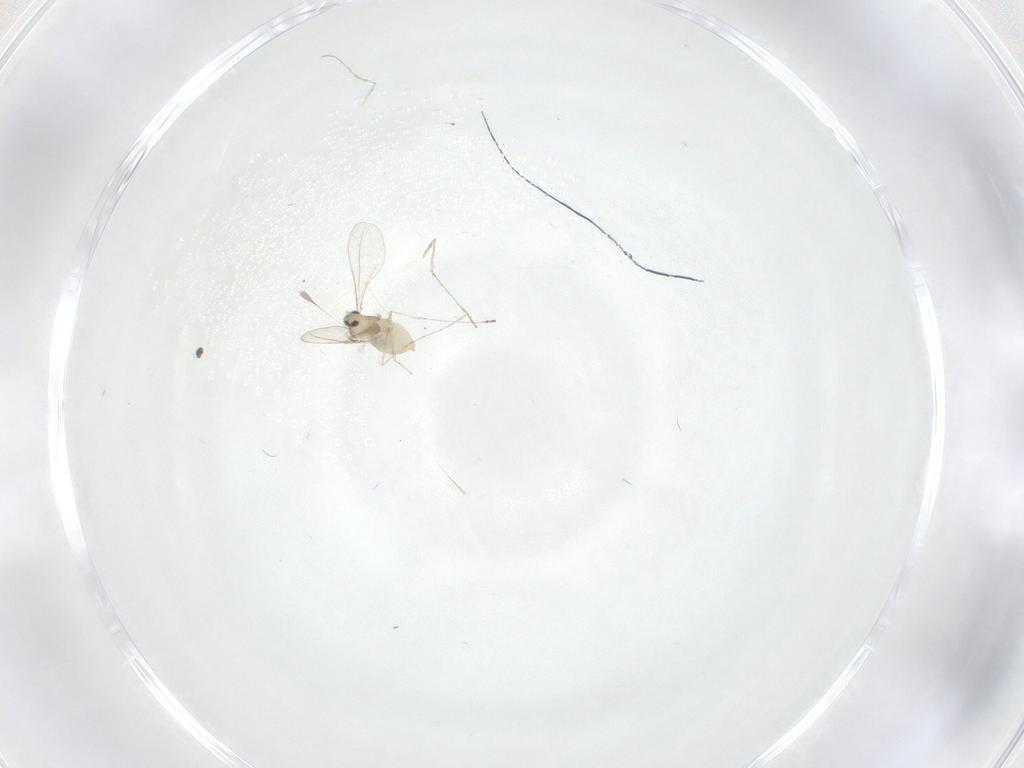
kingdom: Animalia
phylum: Arthropoda
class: Insecta
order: Diptera
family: Cecidomyiidae
